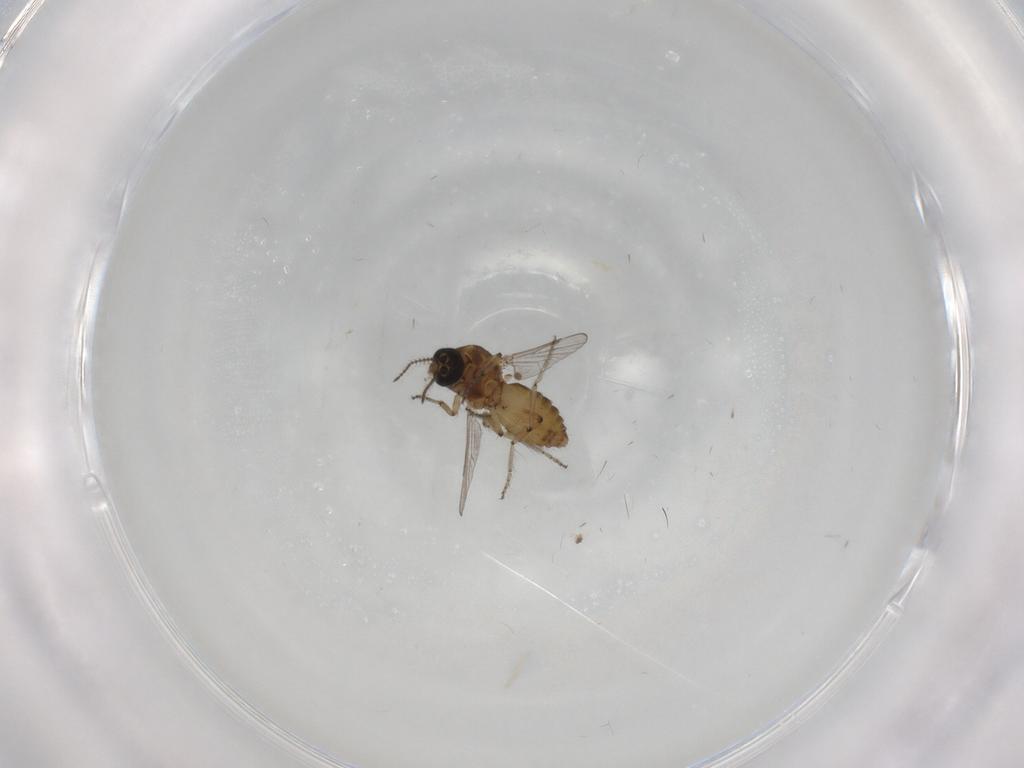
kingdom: Animalia
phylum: Arthropoda
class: Insecta
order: Diptera
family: Ceratopogonidae
